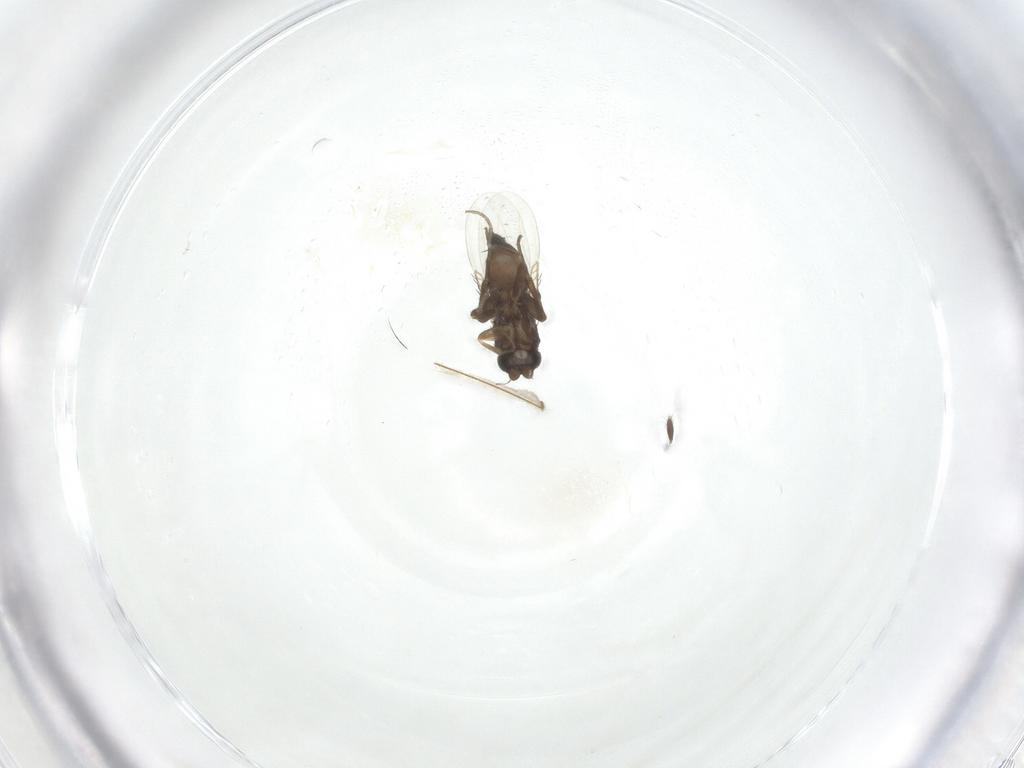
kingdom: Animalia
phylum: Arthropoda
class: Insecta
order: Diptera
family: Phoridae
